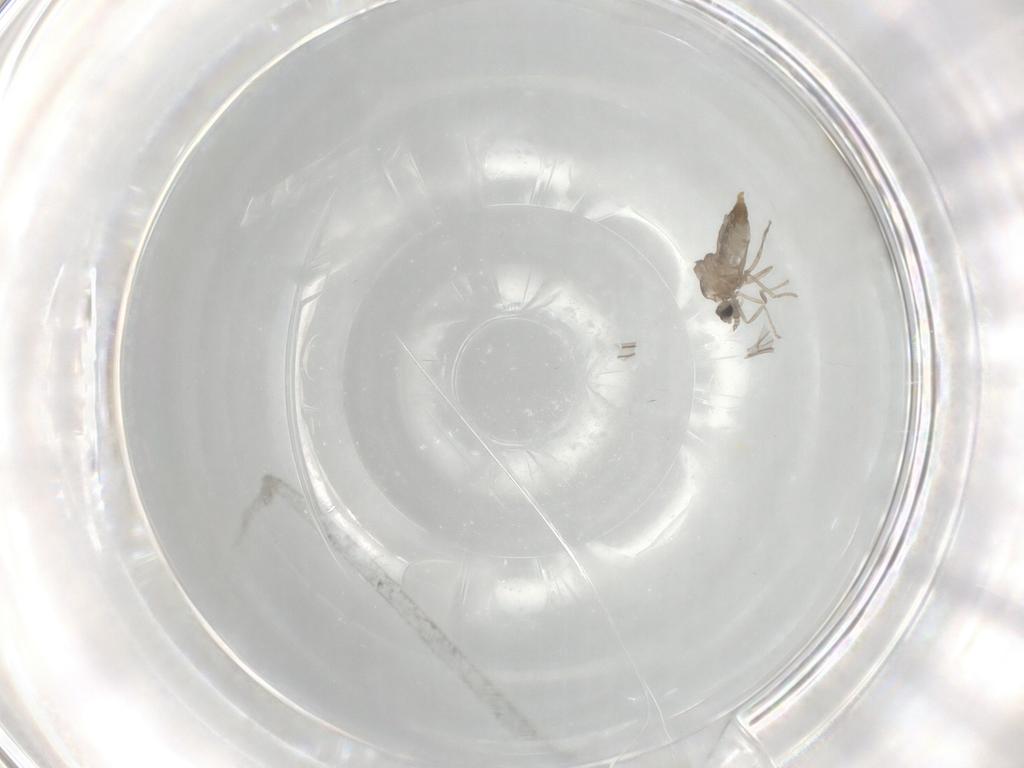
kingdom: Animalia
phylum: Arthropoda
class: Insecta
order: Diptera
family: Cecidomyiidae
